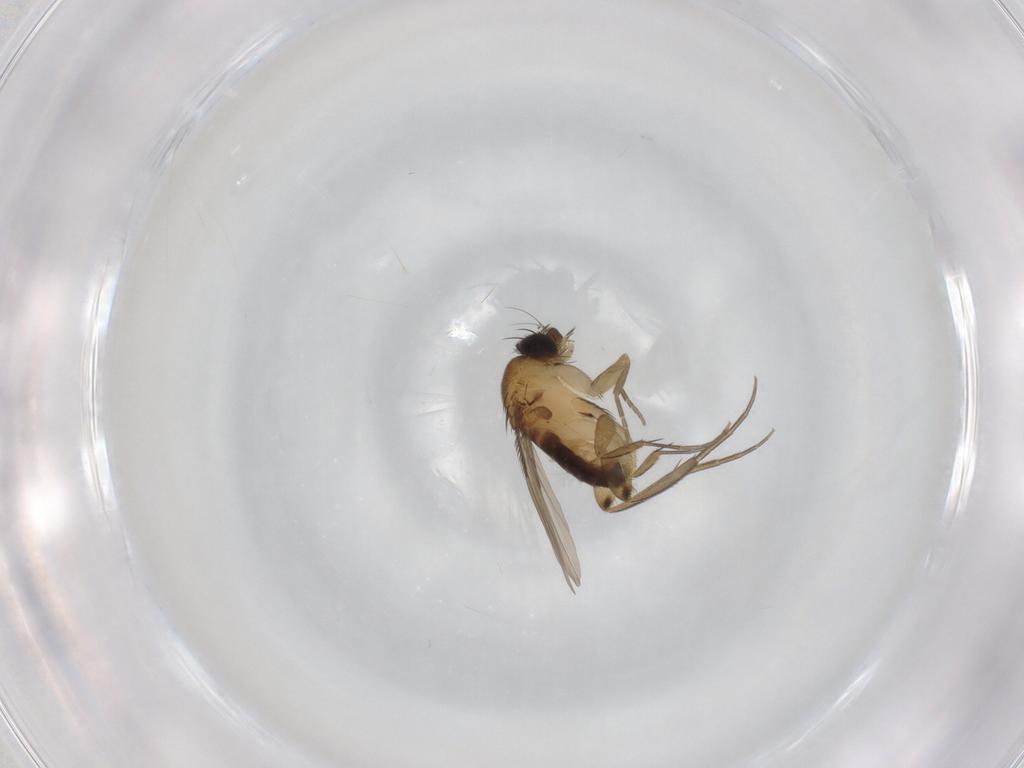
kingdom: Animalia
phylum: Arthropoda
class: Insecta
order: Diptera
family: Phoridae
